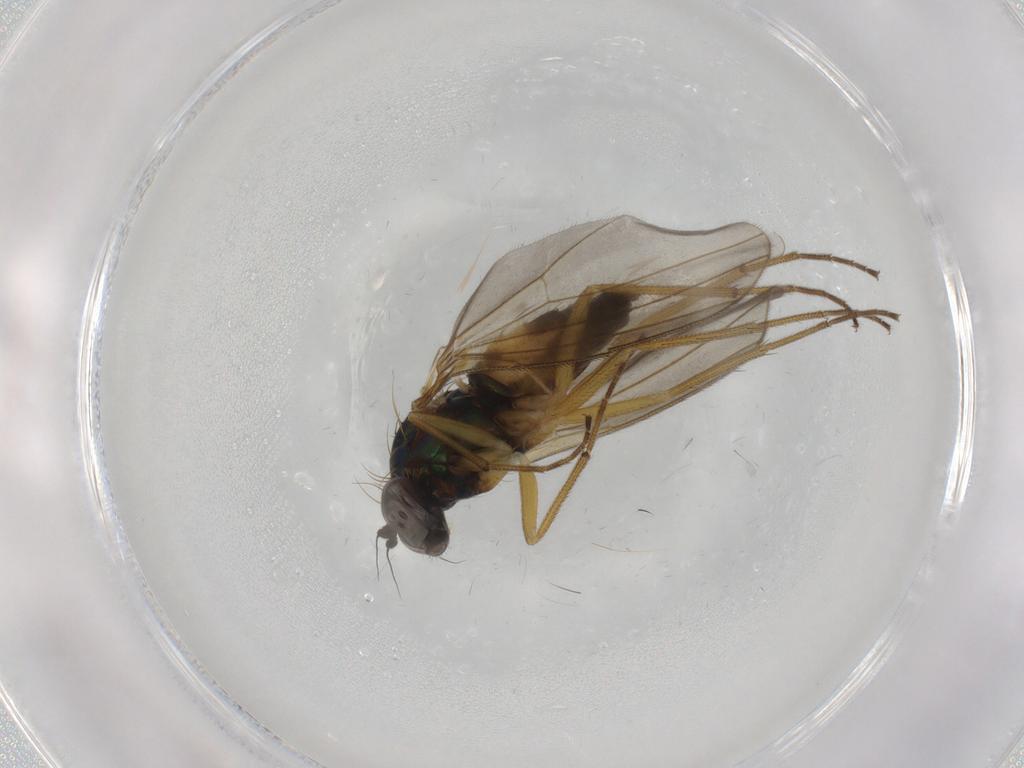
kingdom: Animalia
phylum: Arthropoda
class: Insecta
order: Diptera
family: Dolichopodidae
